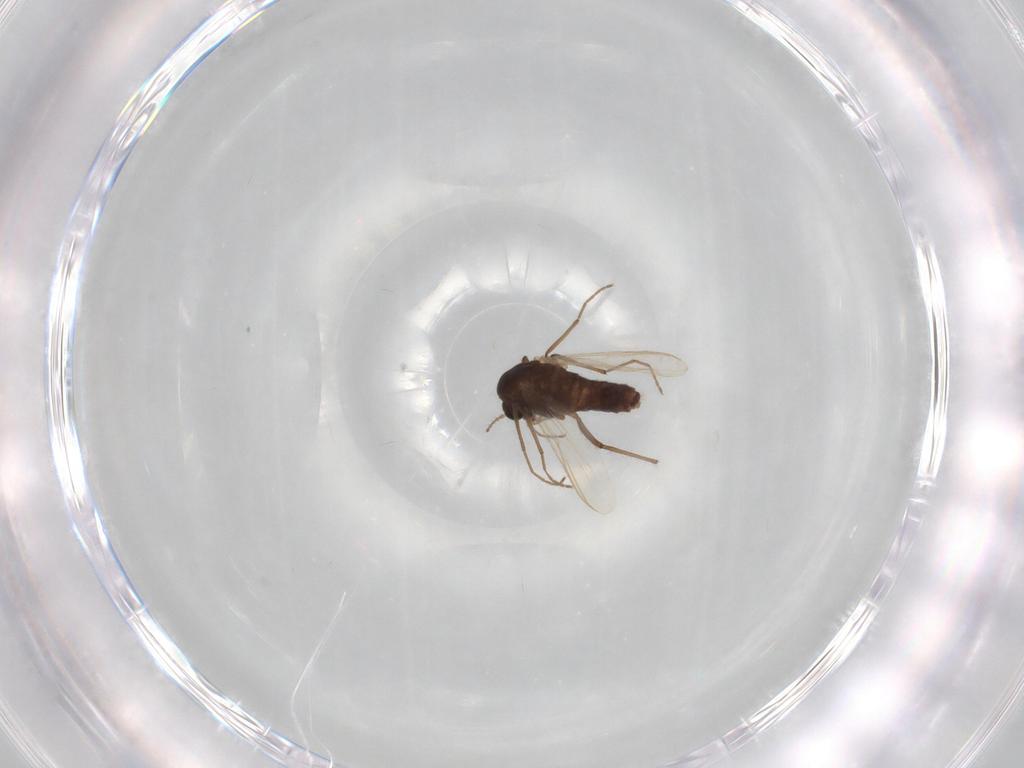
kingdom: Animalia
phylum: Arthropoda
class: Insecta
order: Diptera
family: Chironomidae
